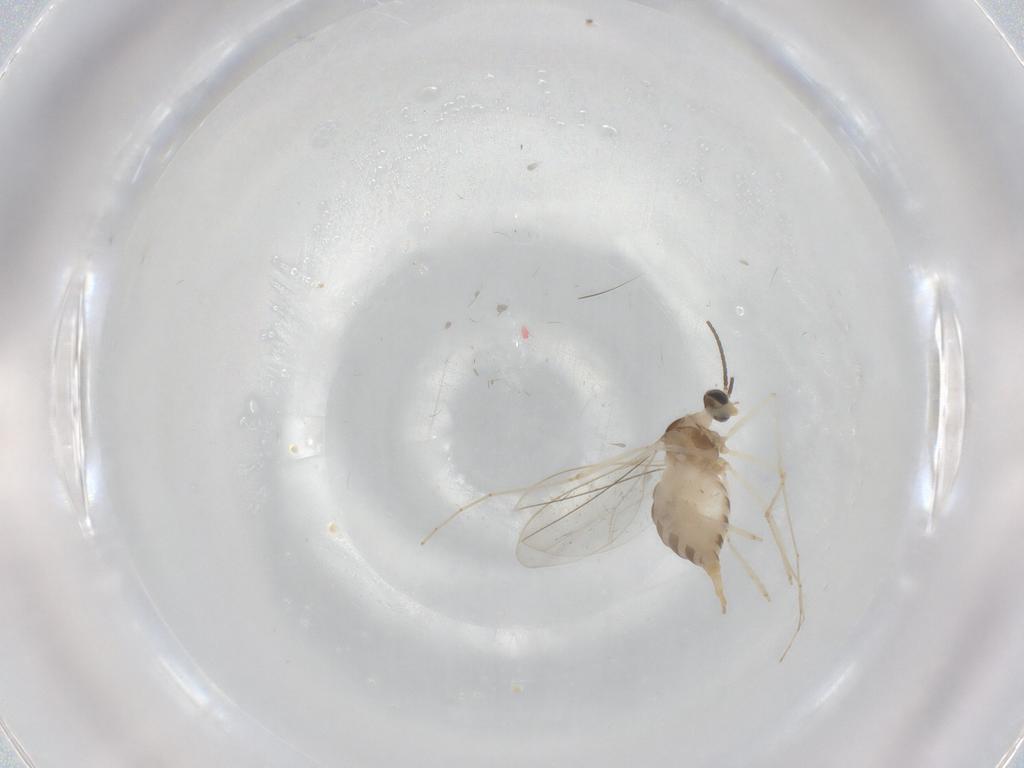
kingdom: Animalia
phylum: Arthropoda
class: Insecta
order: Diptera
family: Cecidomyiidae
